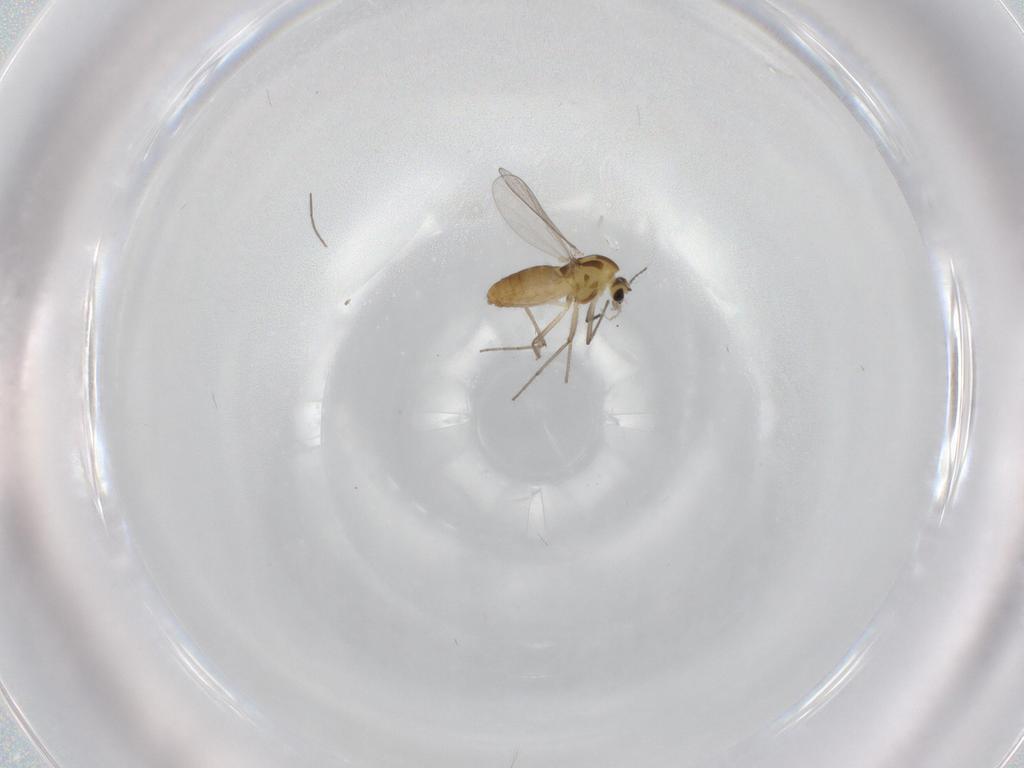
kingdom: Animalia
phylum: Arthropoda
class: Insecta
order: Diptera
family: Chironomidae
